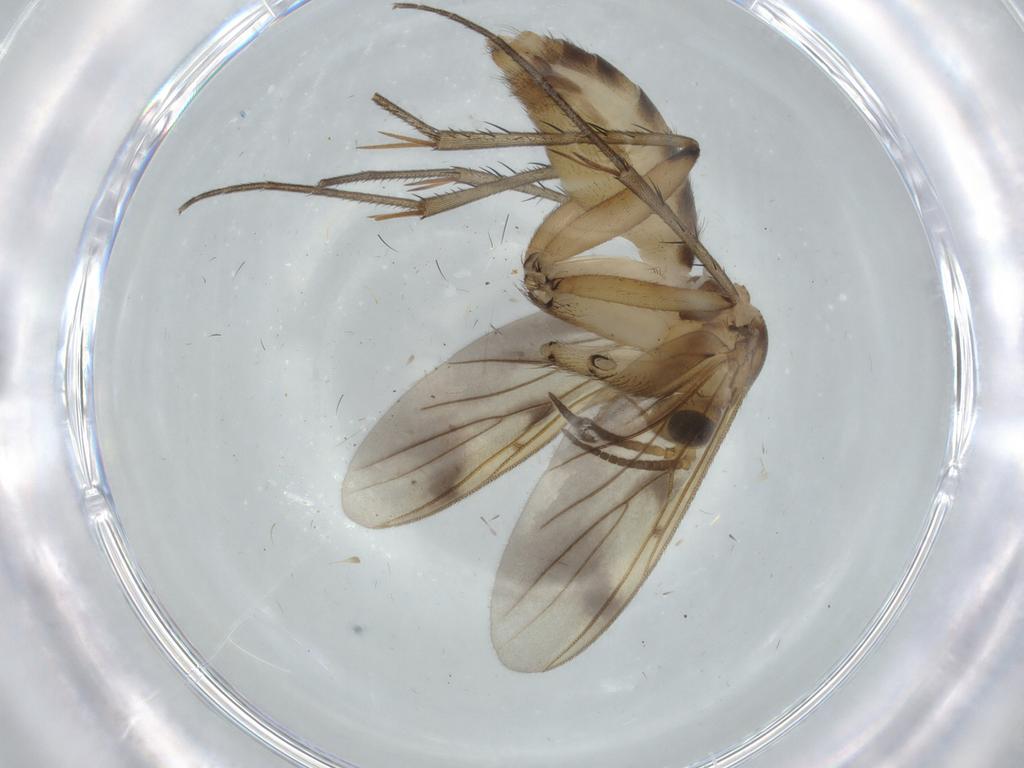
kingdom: Animalia
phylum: Arthropoda
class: Insecta
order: Diptera
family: Mycetophilidae
